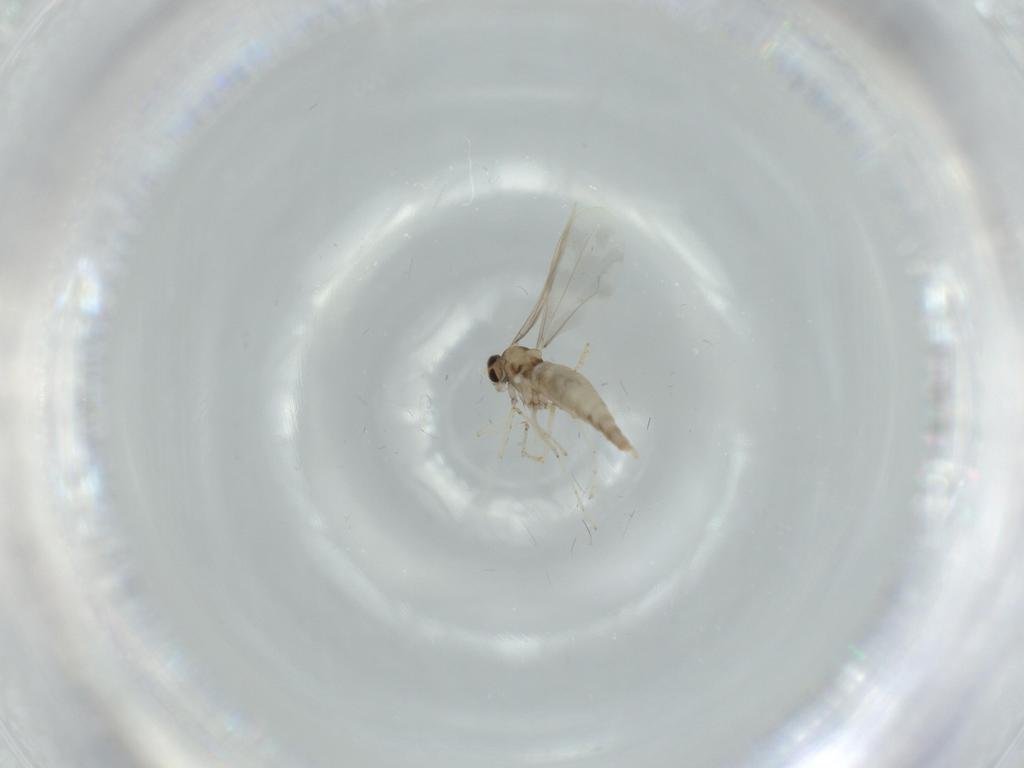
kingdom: Animalia
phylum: Arthropoda
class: Insecta
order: Diptera
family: Cecidomyiidae
